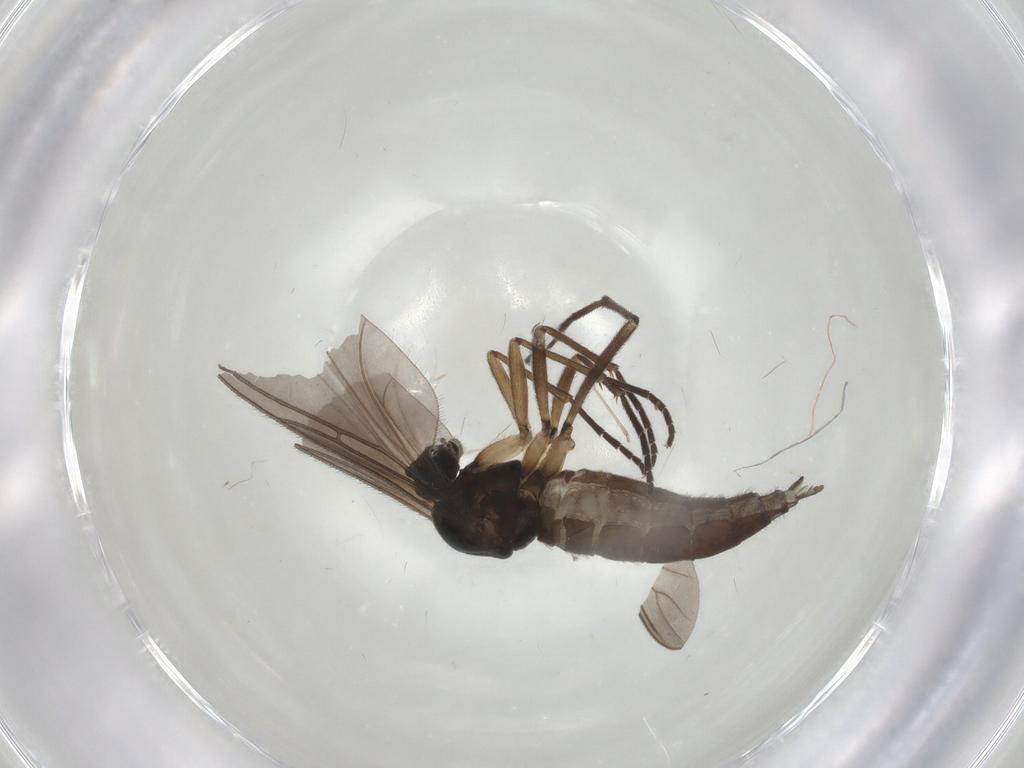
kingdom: Animalia
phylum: Arthropoda
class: Insecta
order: Diptera
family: Sciaridae
